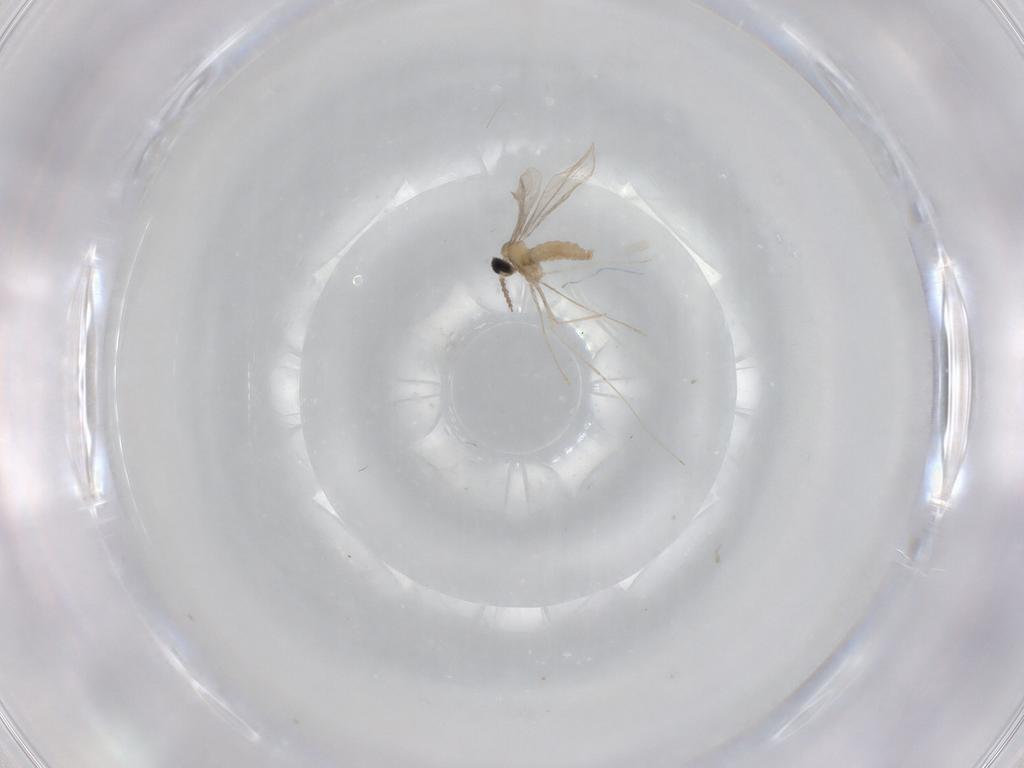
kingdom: Animalia
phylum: Arthropoda
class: Insecta
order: Diptera
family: Cecidomyiidae
